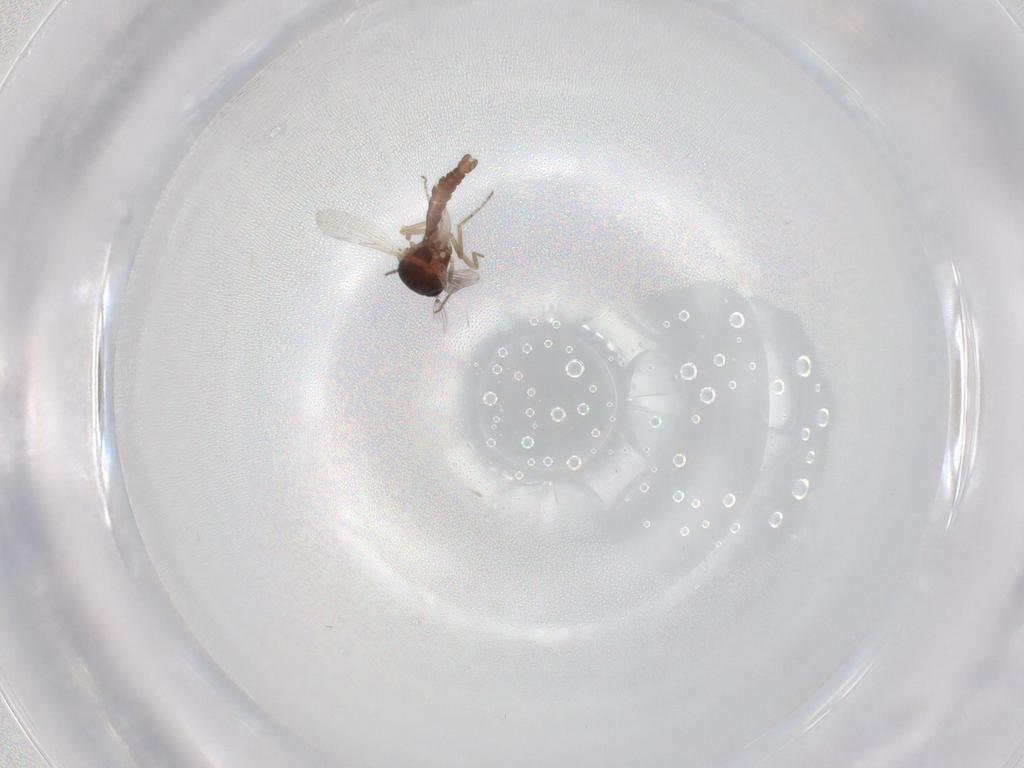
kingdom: Animalia
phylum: Arthropoda
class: Insecta
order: Diptera
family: Ceratopogonidae
